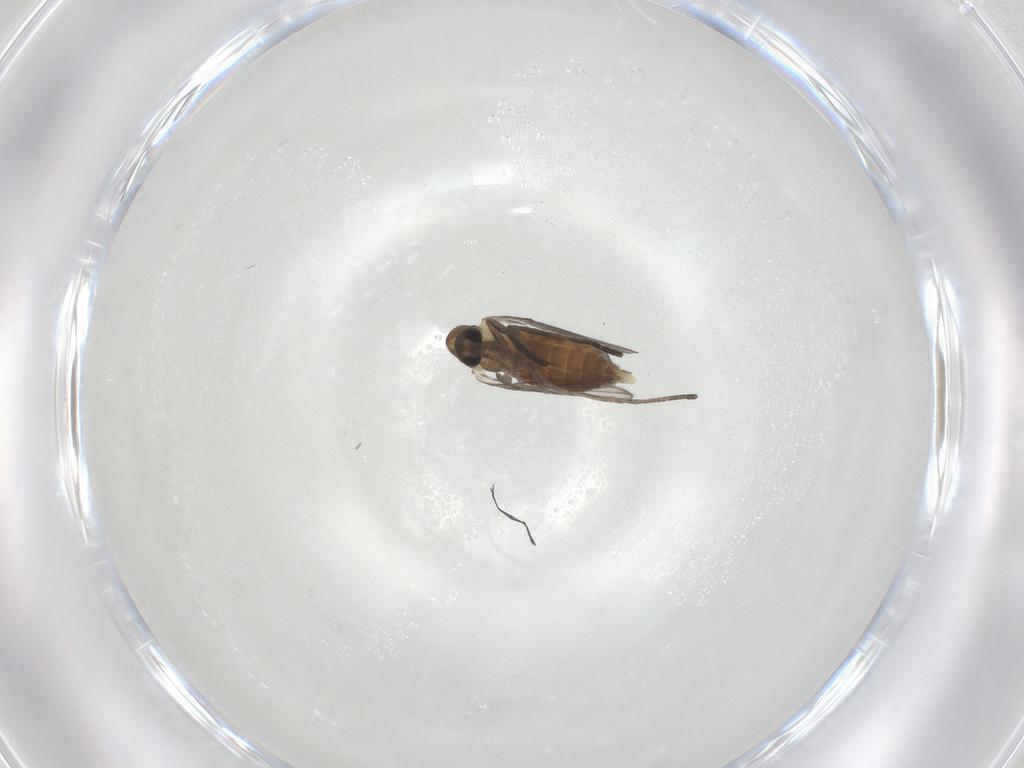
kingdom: Animalia
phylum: Arthropoda
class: Insecta
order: Diptera
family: Psychodidae
